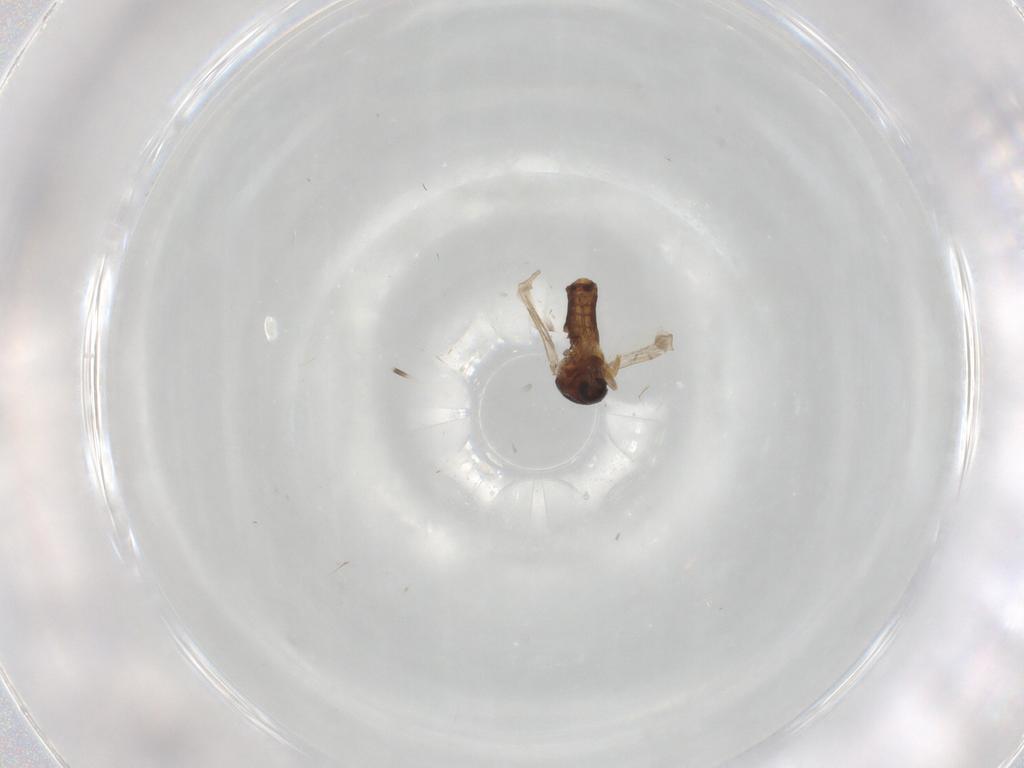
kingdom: Animalia
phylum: Arthropoda
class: Insecta
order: Diptera
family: Ceratopogonidae
